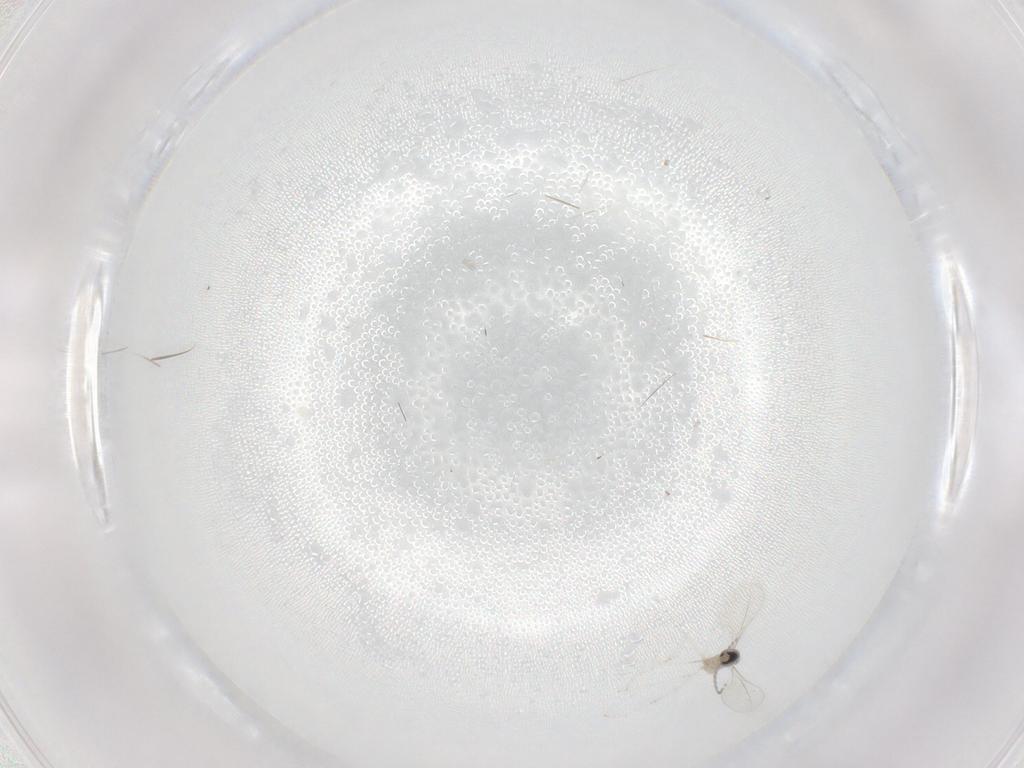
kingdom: Animalia
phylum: Arthropoda
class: Insecta
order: Diptera
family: Cecidomyiidae
